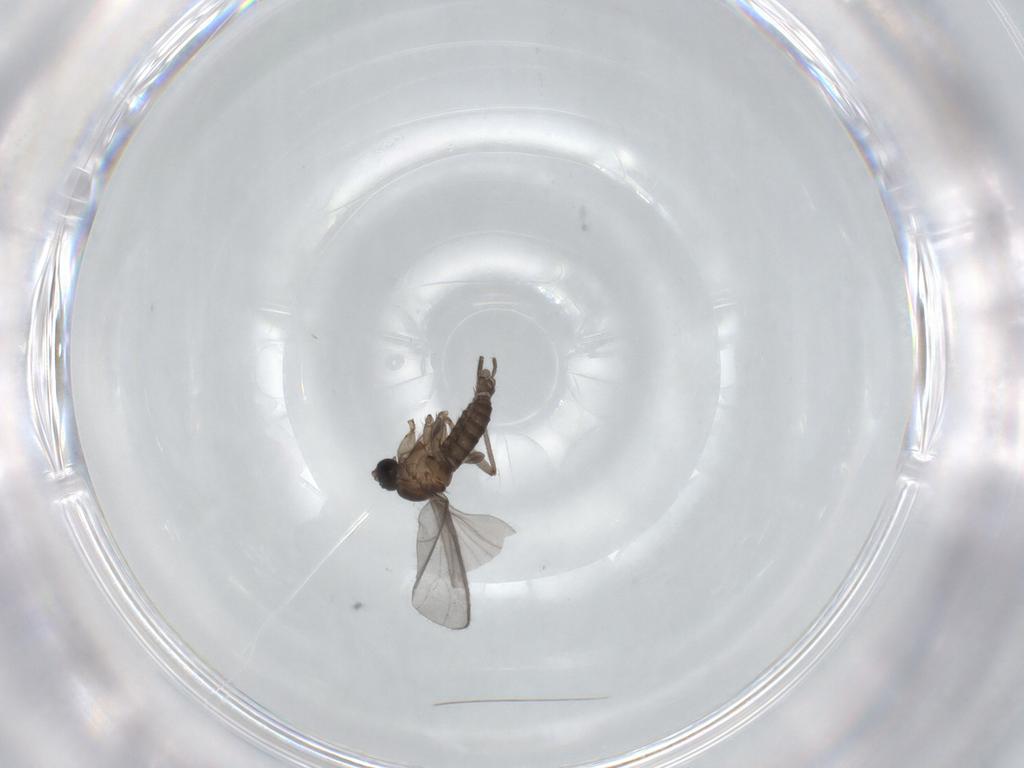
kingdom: Animalia
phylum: Arthropoda
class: Insecta
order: Diptera
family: Sciaridae
